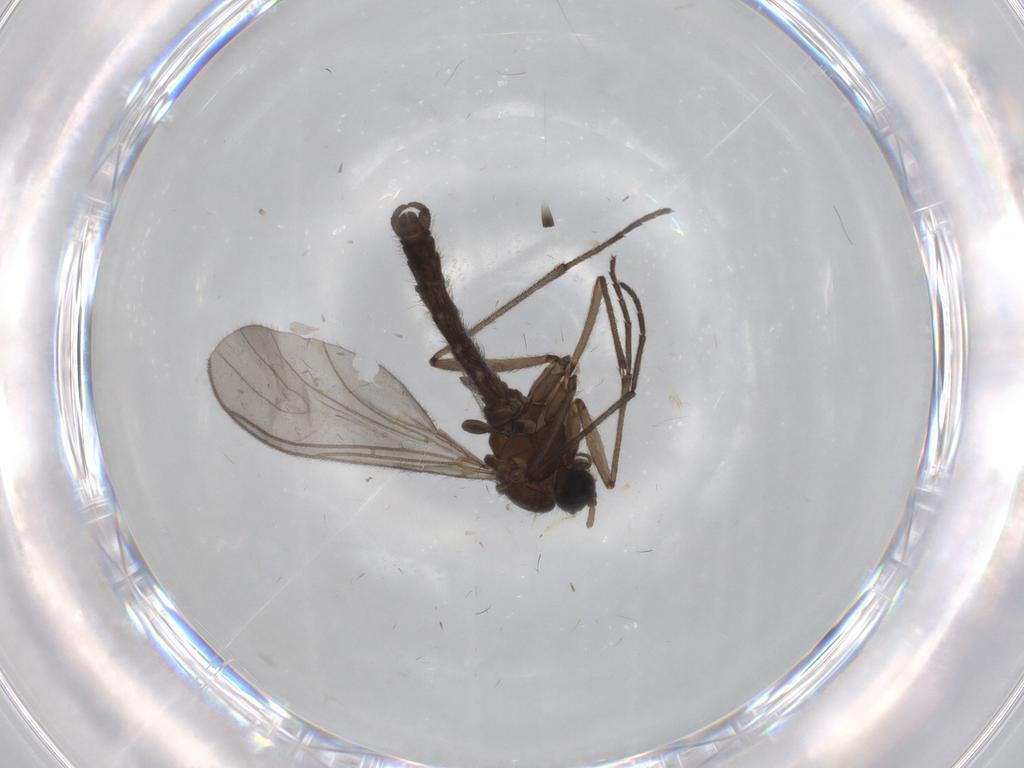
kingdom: Animalia
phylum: Arthropoda
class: Insecta
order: Diptera
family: Sciaridae
